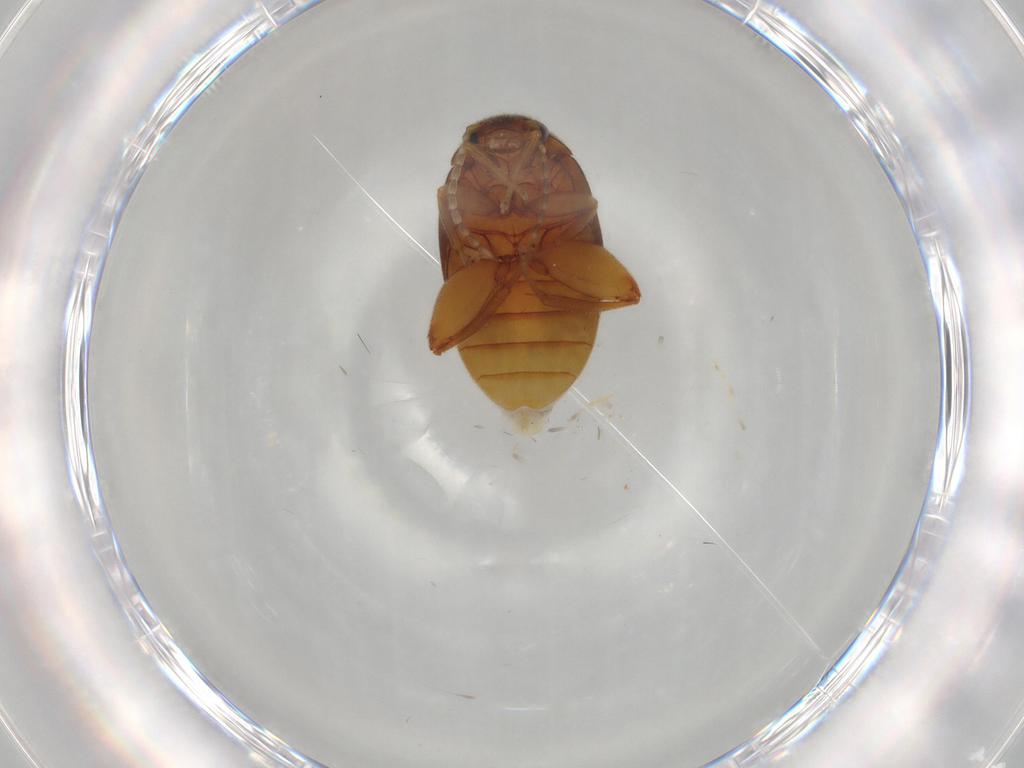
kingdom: Animalia
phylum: Arthropoda
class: Insecta
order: Coleoptera
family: Scirtidae
